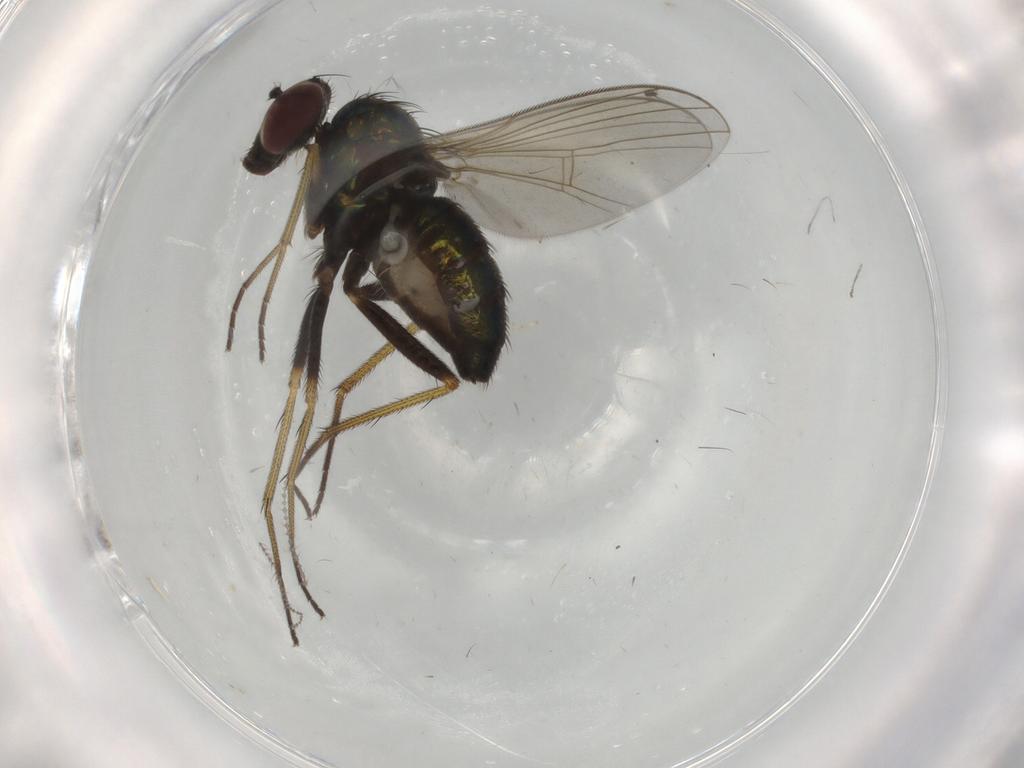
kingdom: Animalia
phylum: Arthropoda
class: Insecta
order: Diptera
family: Dolichopodidae
